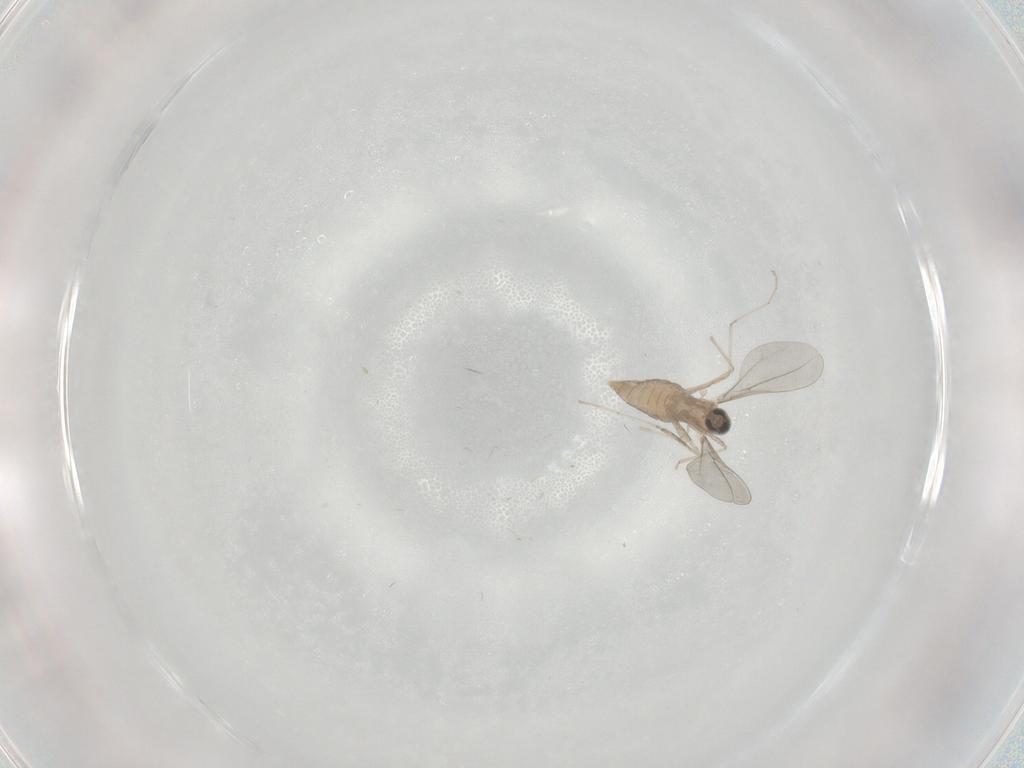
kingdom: Animalia
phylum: Arthropoda
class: Insecta
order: Diptera
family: Cecidomyiidae
